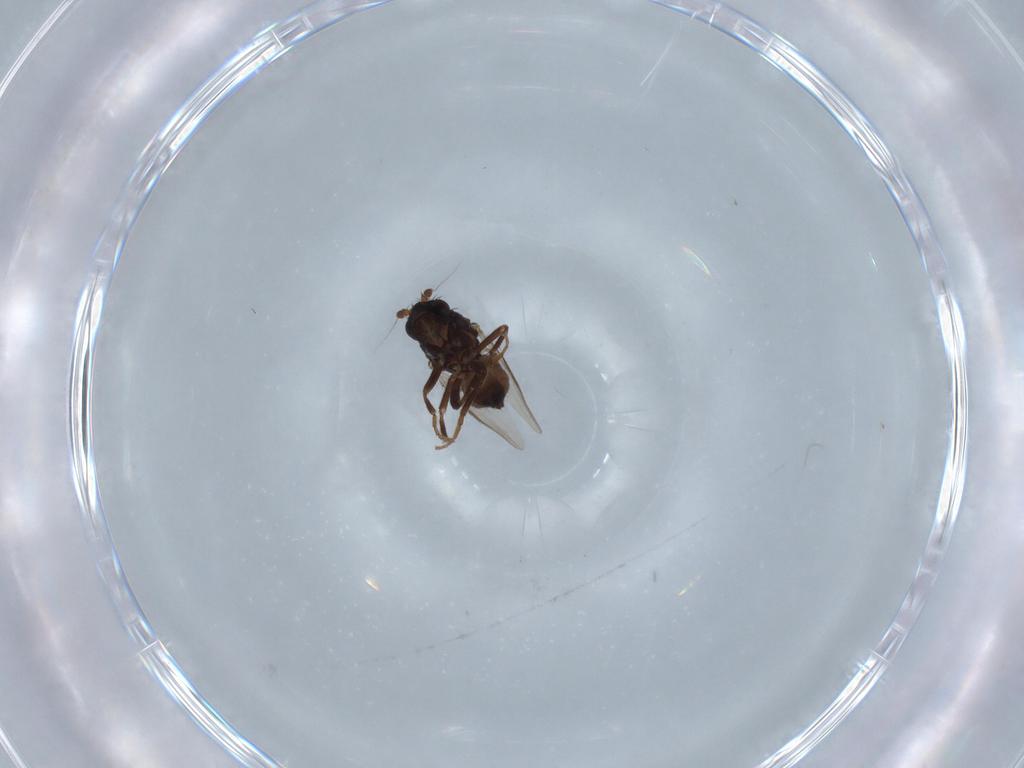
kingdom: Animalia
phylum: Arthropoda
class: Insecta
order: Diptera
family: Sphaeroceridae
